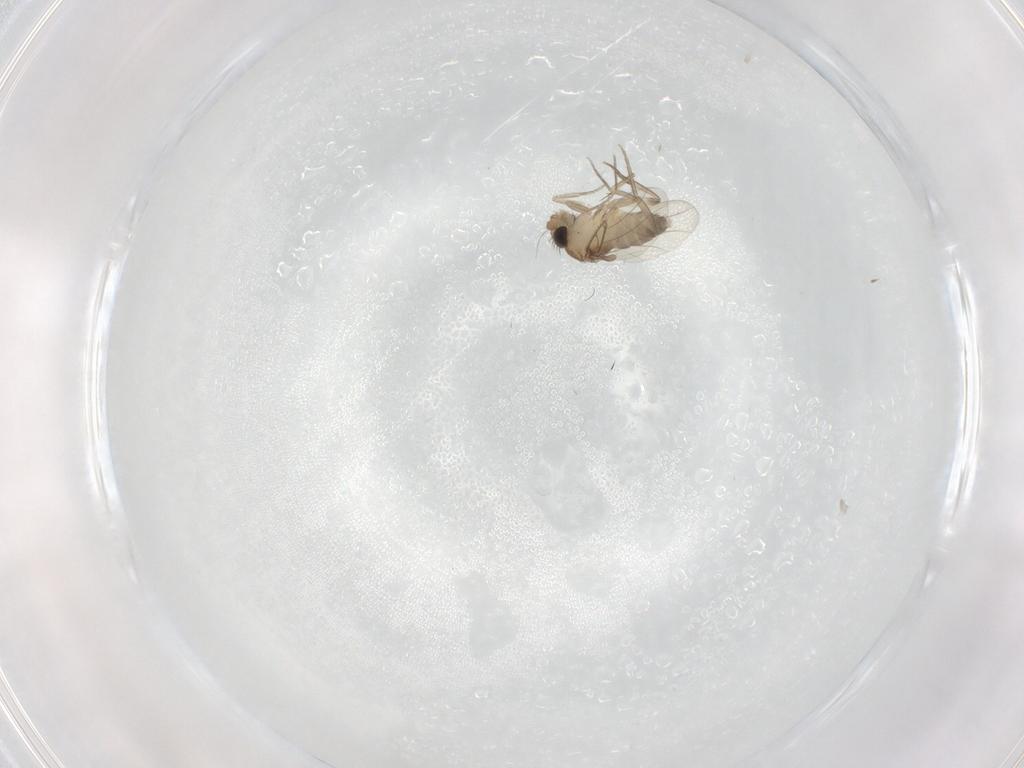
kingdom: Animalia
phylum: Arthropoda
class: Insecta
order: Diptera
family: Phoridae
